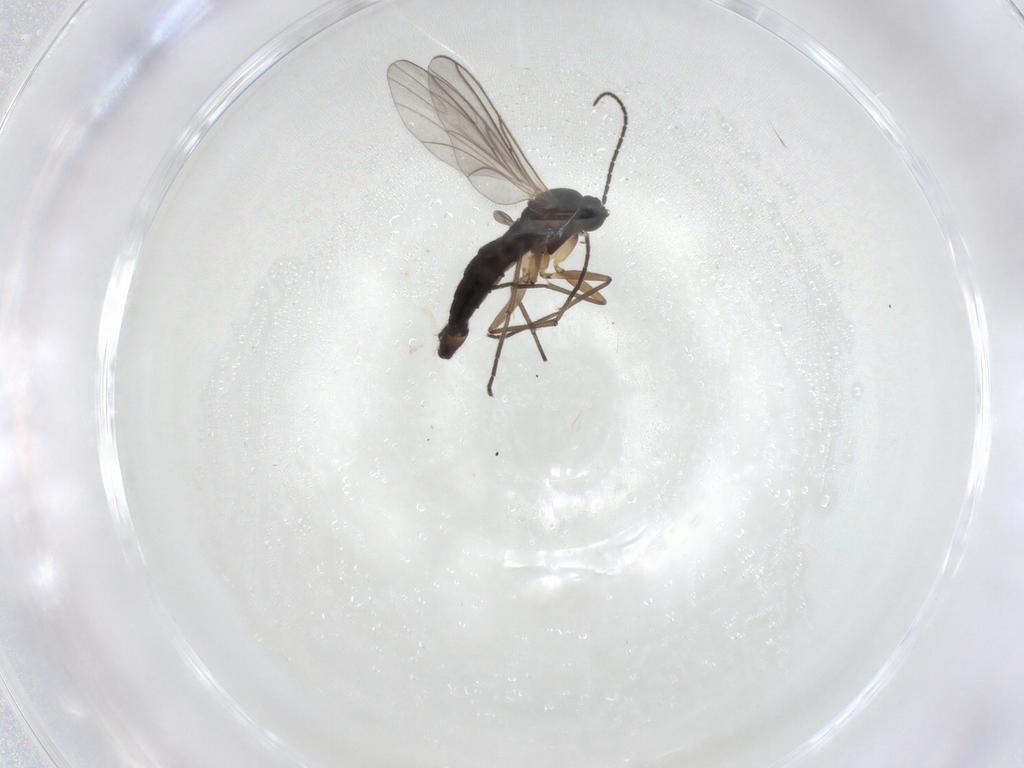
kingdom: Animalia
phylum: Arthropoda
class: Insecta
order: Diptera
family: Sciaridae
